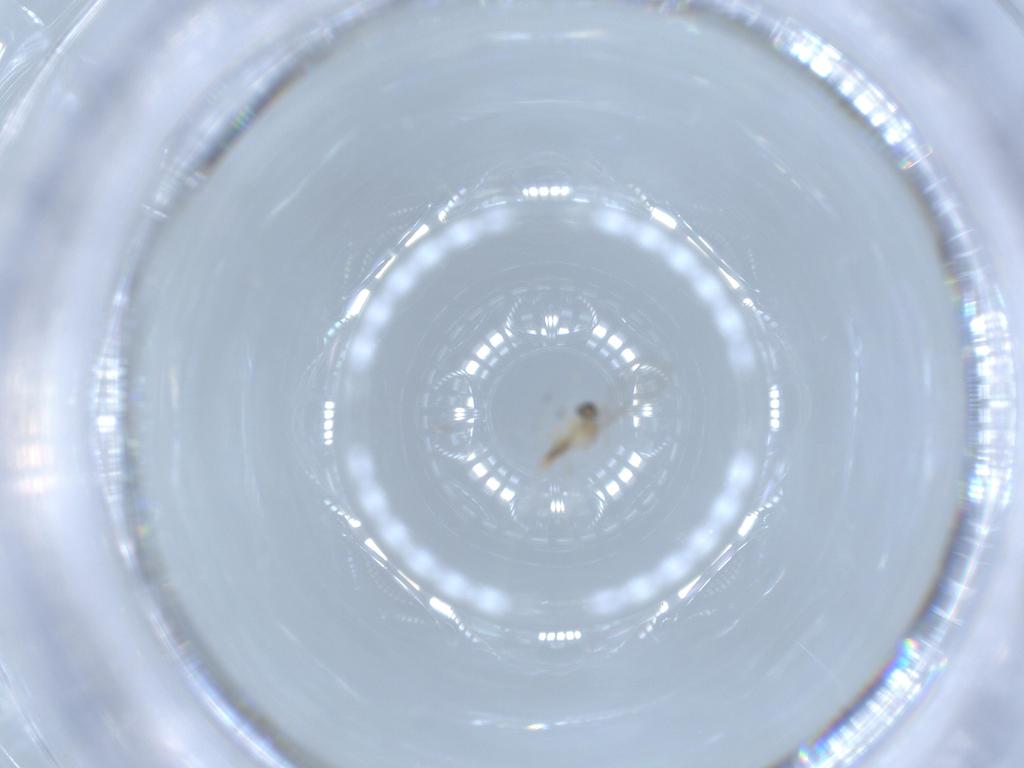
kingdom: Animalia
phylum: Arthropoda
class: Insecta
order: Diptera
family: Cecidomyiidae
